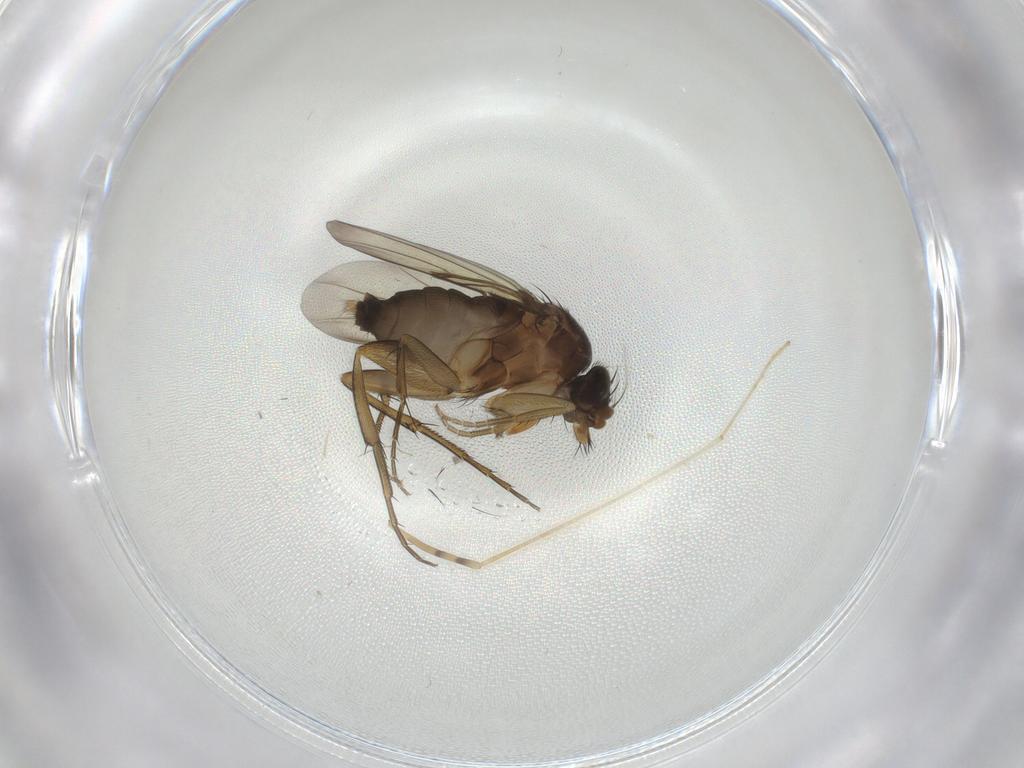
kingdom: Animalia
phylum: Arthropoda
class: Insecta
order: Diptera
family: Phoridae
